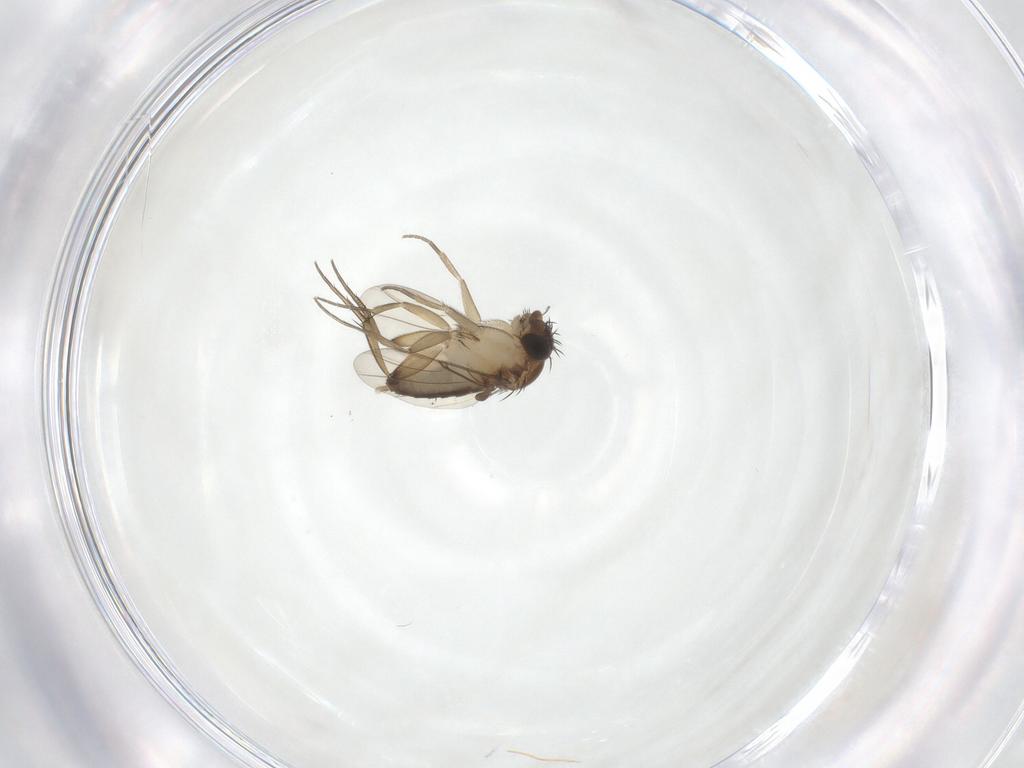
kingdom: Animalia
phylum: Arthropoda
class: Insecta
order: Diptera
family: Phoridae
